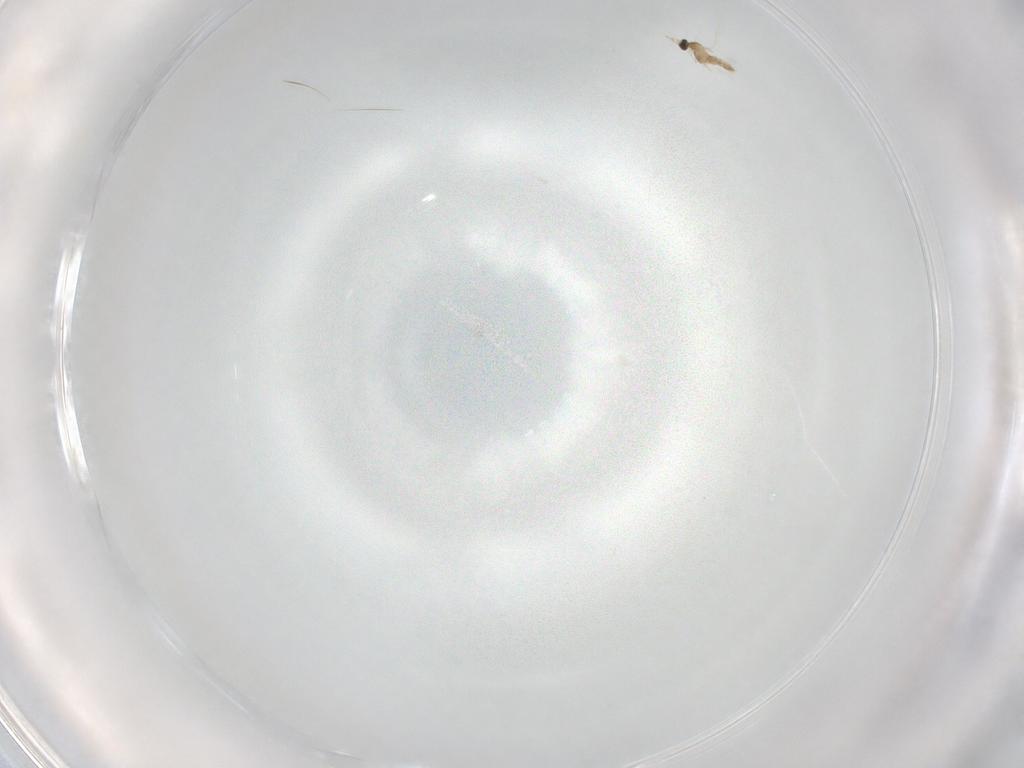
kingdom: Animalia
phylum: Arthropoda
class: Insecta
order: Diptera
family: Cecidomyiidae
